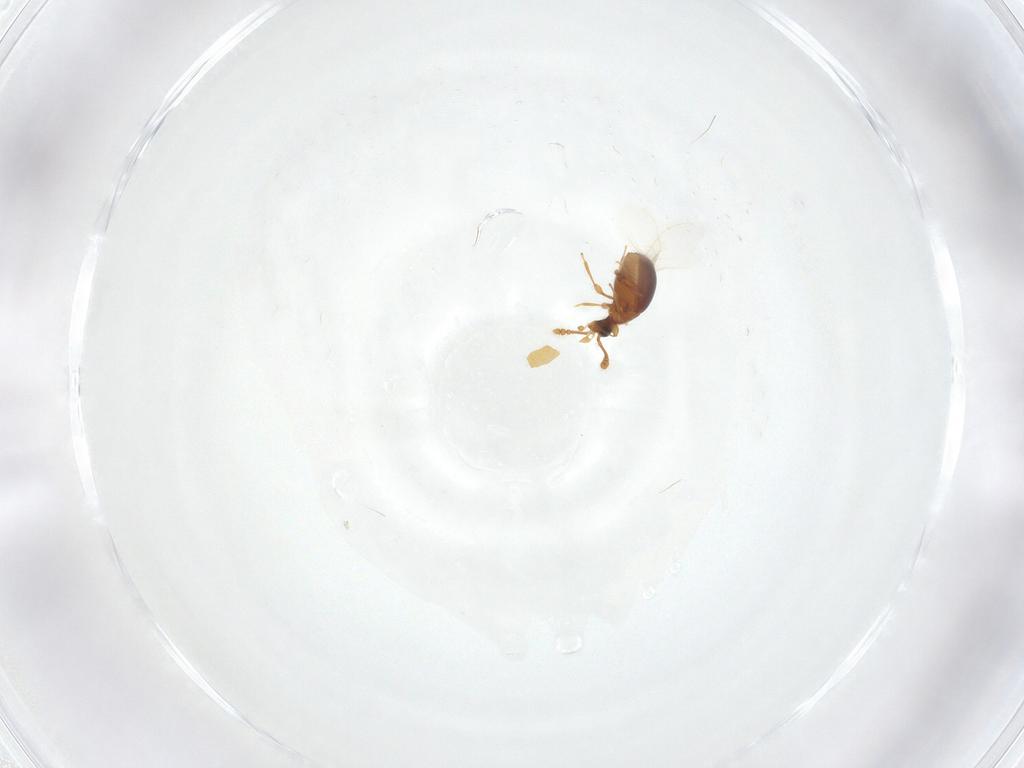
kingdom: Animalia
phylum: Arthropoda
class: Insecta
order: Coleoptera
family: Staphylinidae
